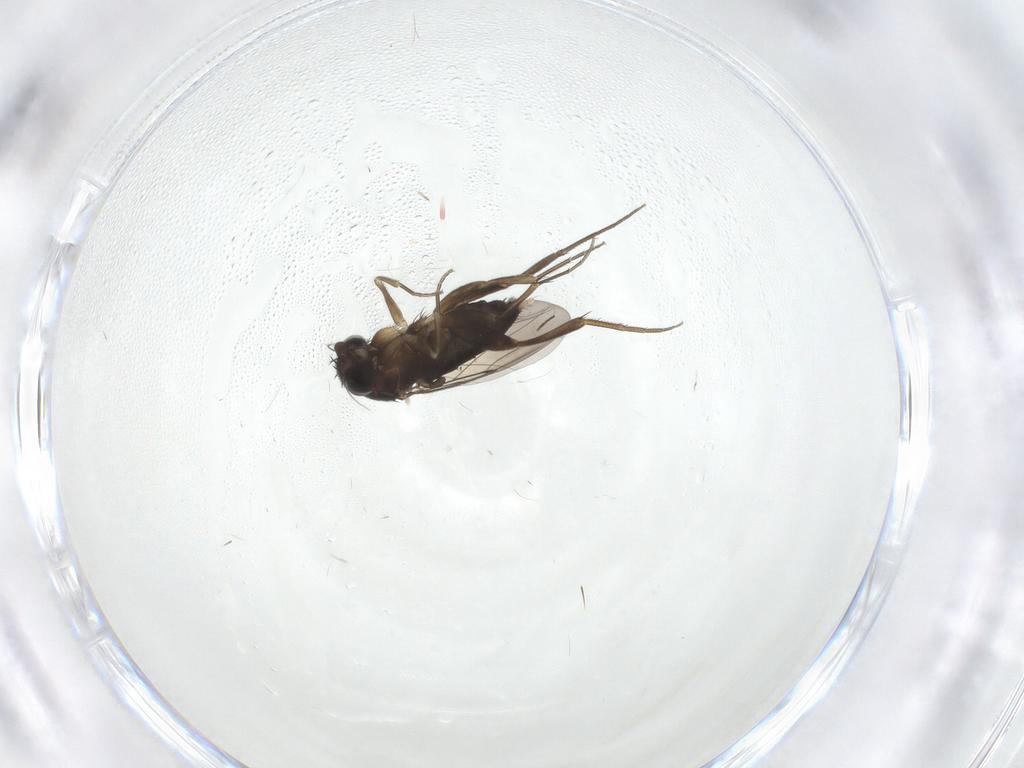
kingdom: Animalia
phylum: Arthropoda
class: Insecta
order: Diptera
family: Phoridae
